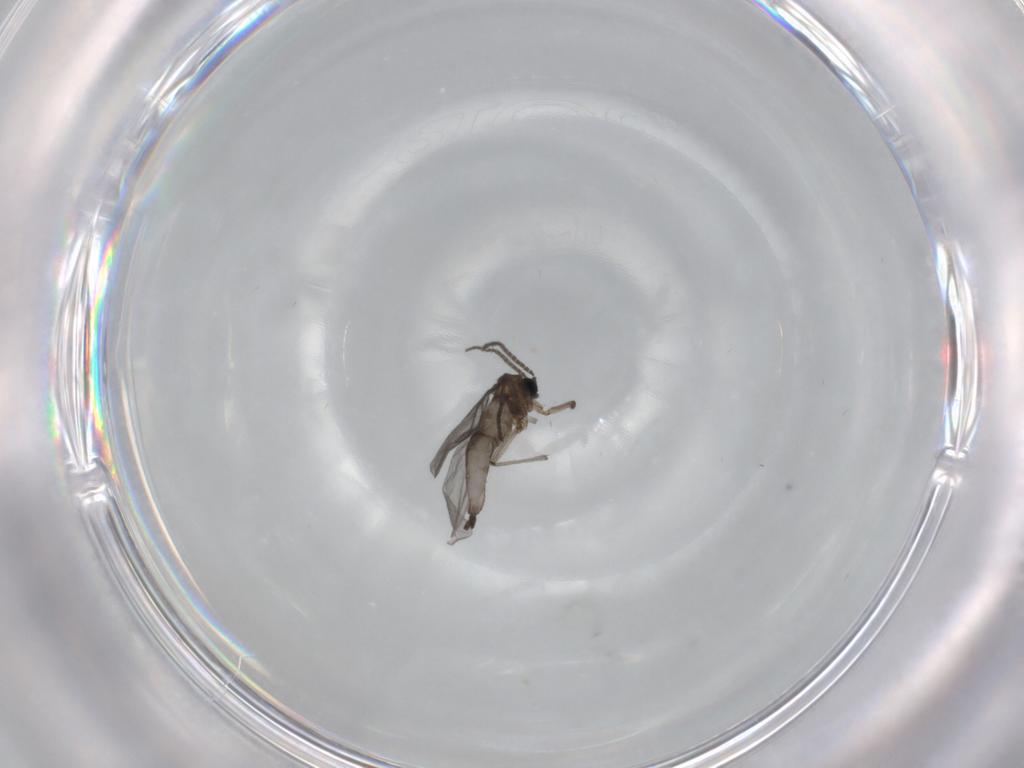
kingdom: Animalia
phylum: Arthropoda
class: Insecta
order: Diptera
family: Sciaridae
